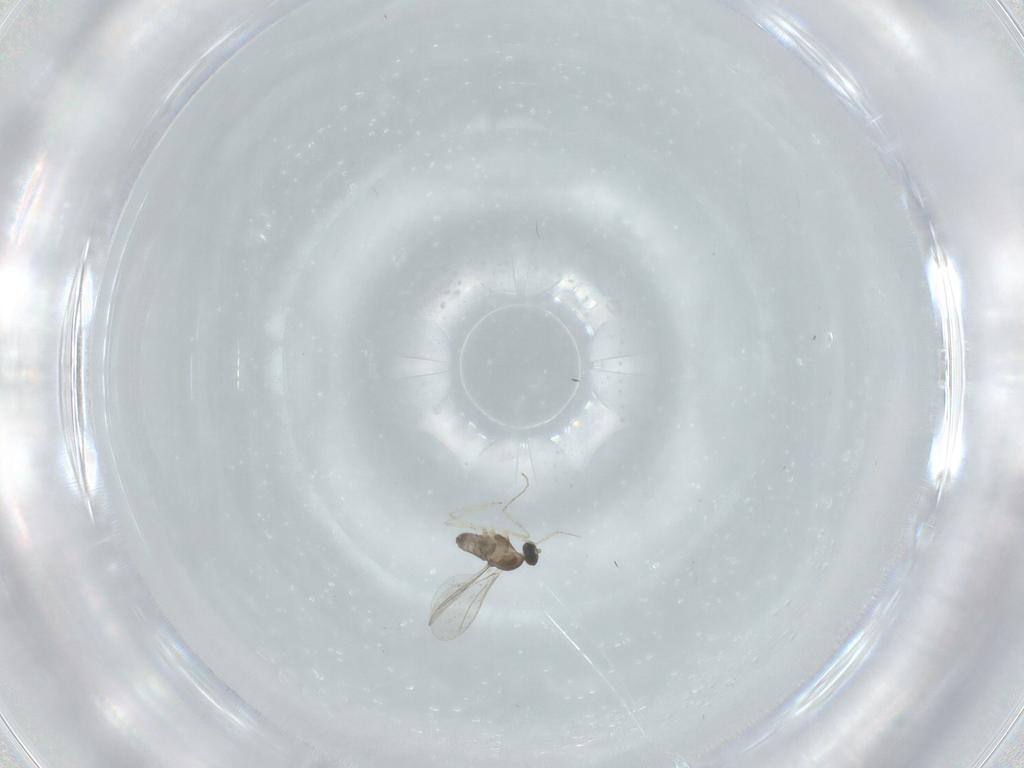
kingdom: Animalia
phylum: Arthropoda
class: Insecta
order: Diptera
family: Cecidomyiidae
